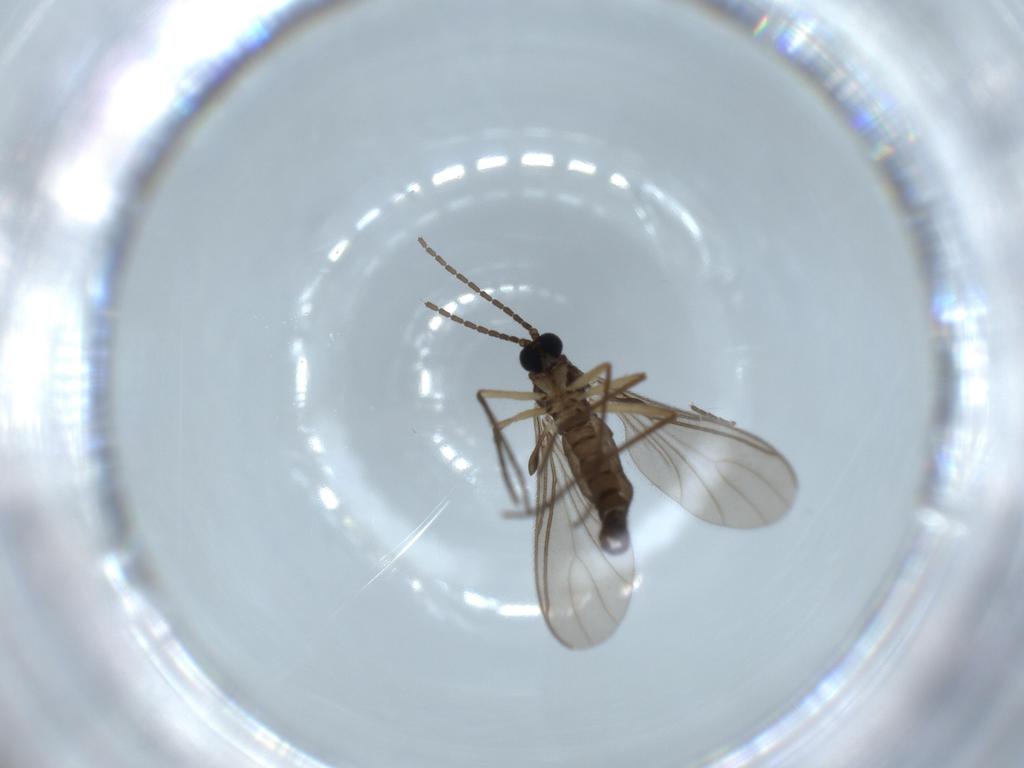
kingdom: Animalia
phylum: Arthropoda
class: Insecta
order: Diptera
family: Sciaridae
